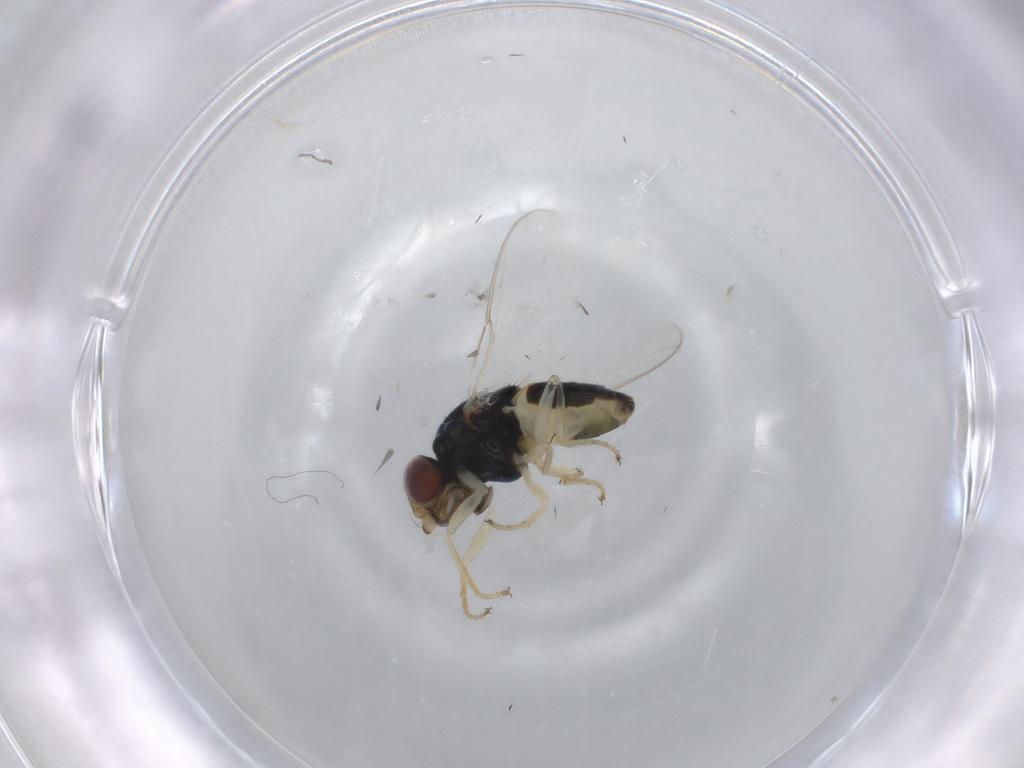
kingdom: Animalia
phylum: Arthropoda
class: Insecta
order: Diptera
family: Chloropidae
